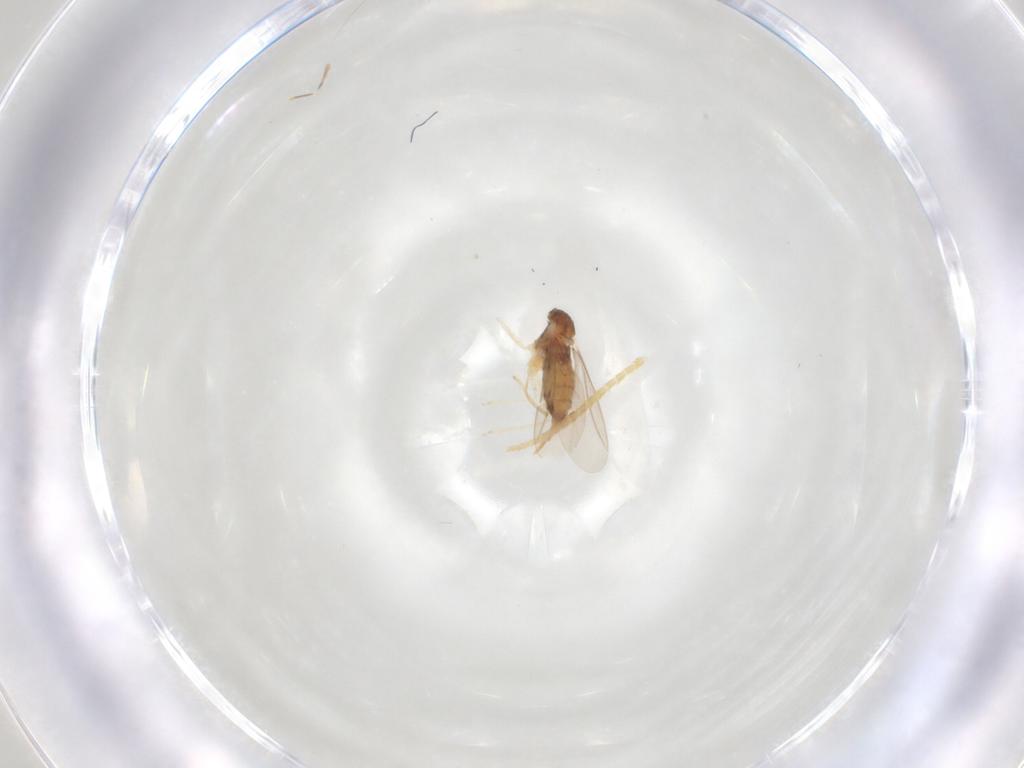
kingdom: Animalia
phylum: Arthropoda
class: Insecta
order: Diptera
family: Cecidomyiidae
